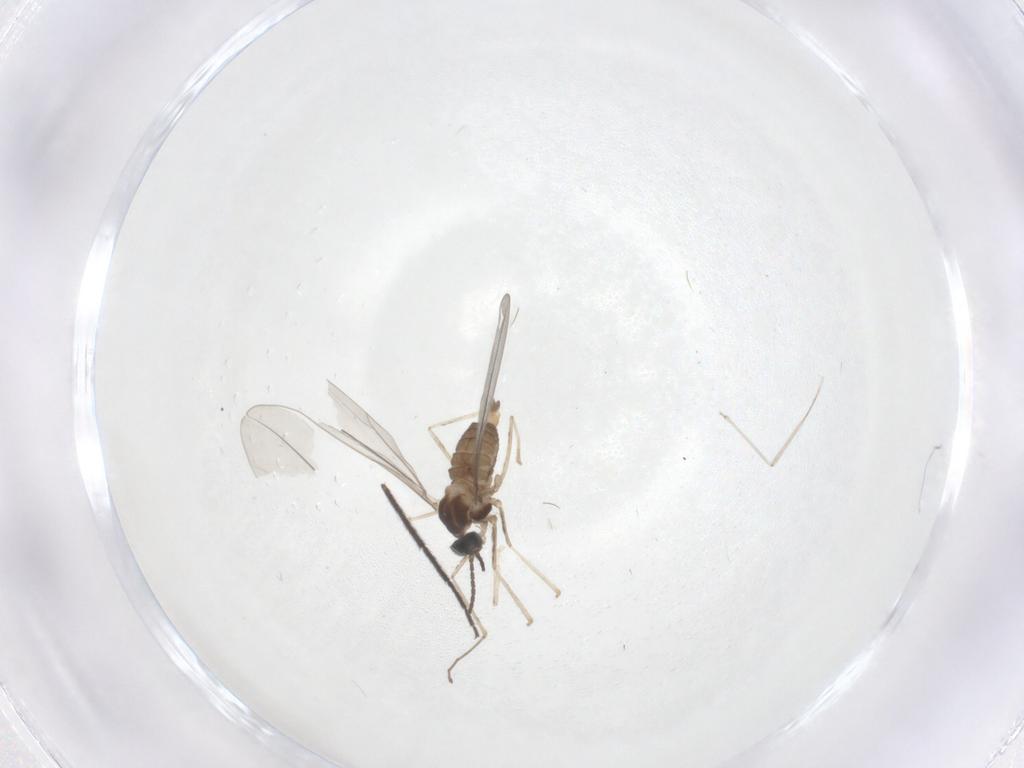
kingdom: Animalia
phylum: Arthropoda
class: Insecta
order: Diptera
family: Chironomidae
